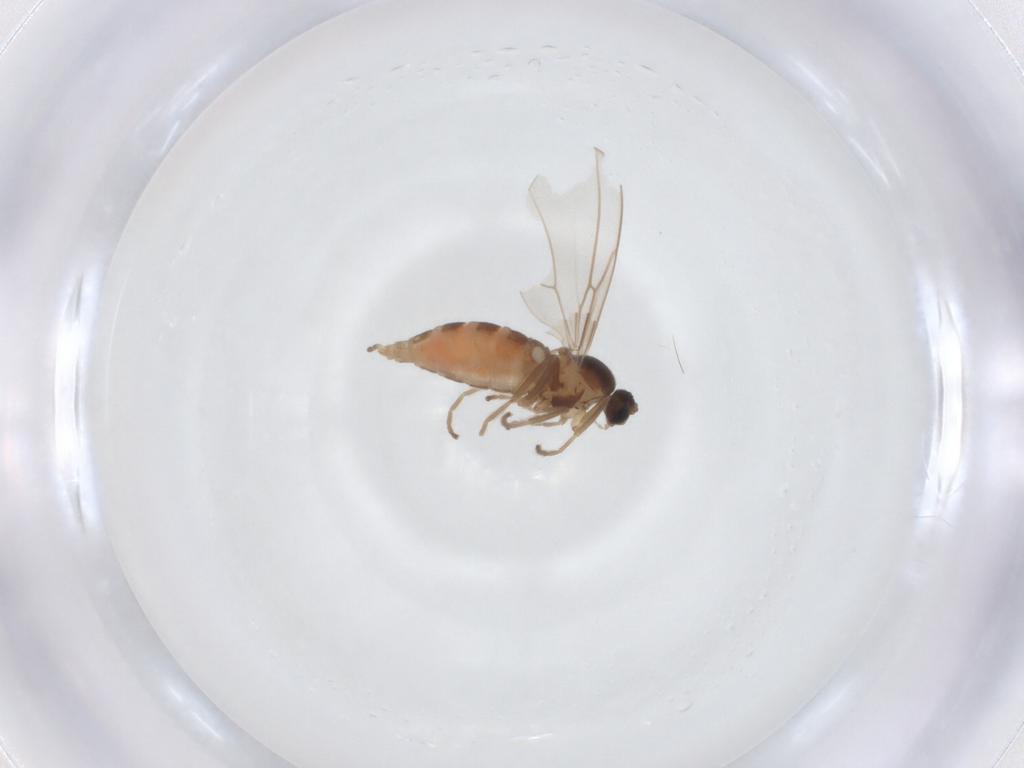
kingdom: Animalia
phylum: Arthropoda
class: Insecta
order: Diptera
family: Cecidomyiidae
